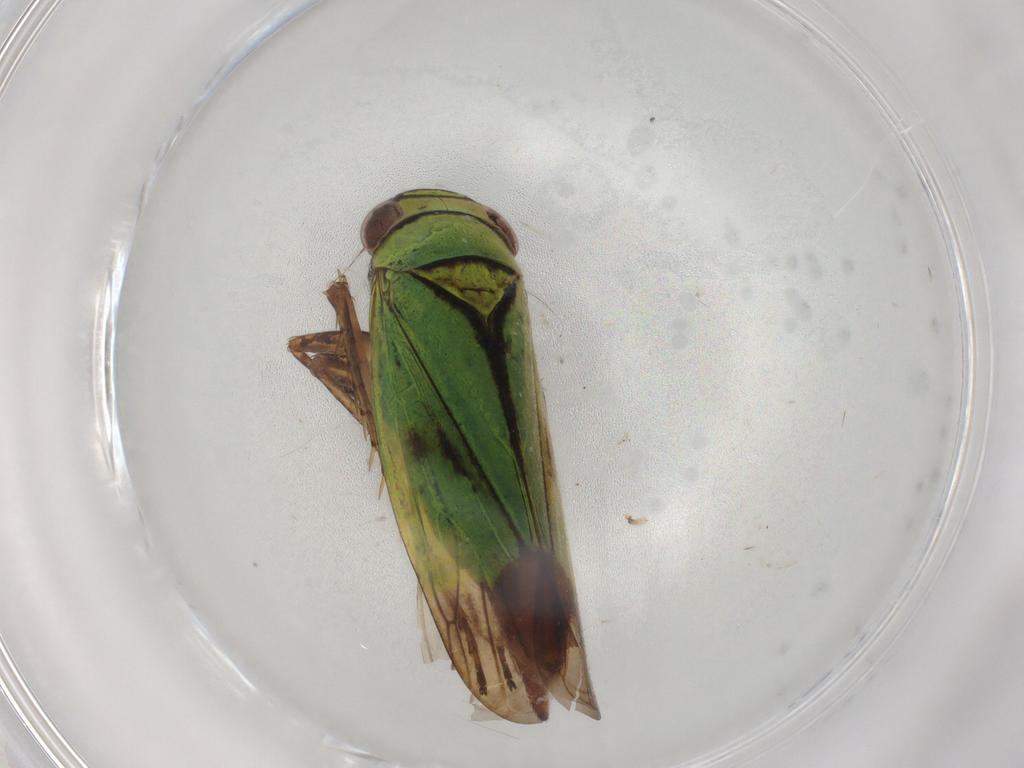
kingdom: Animalia
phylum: Arthropoda
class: Insecta
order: Hemiptera
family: Cicadellidae
